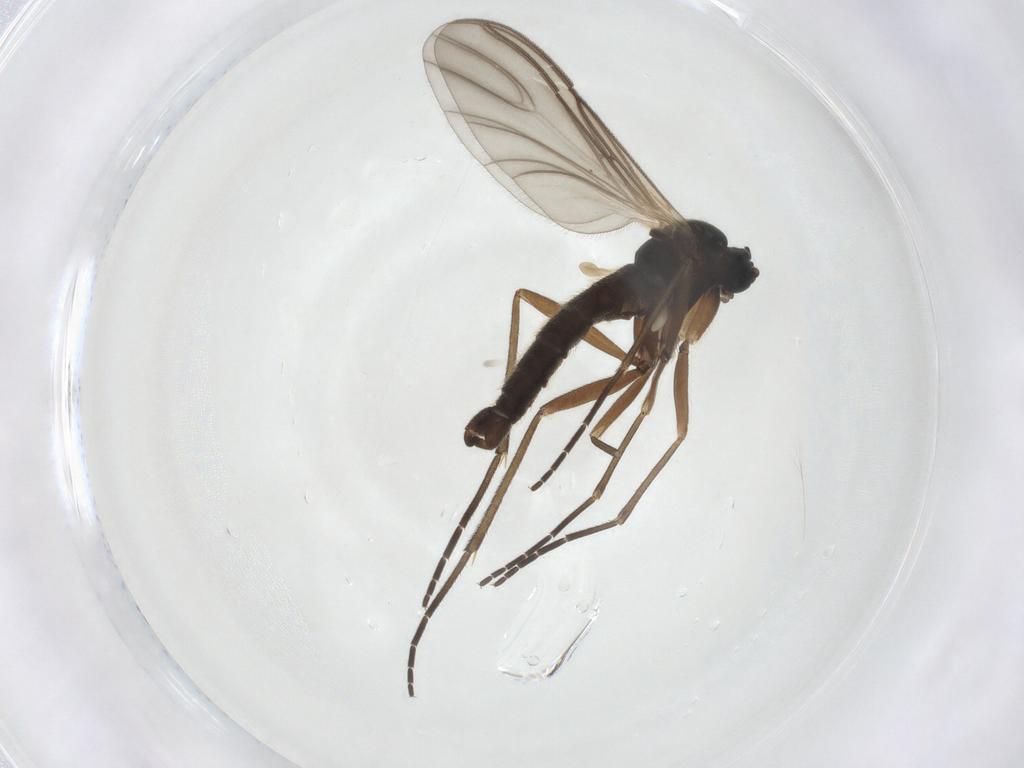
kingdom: Animalia
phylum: Arthropoda
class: Insecta
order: Diptera
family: Sciaridae
